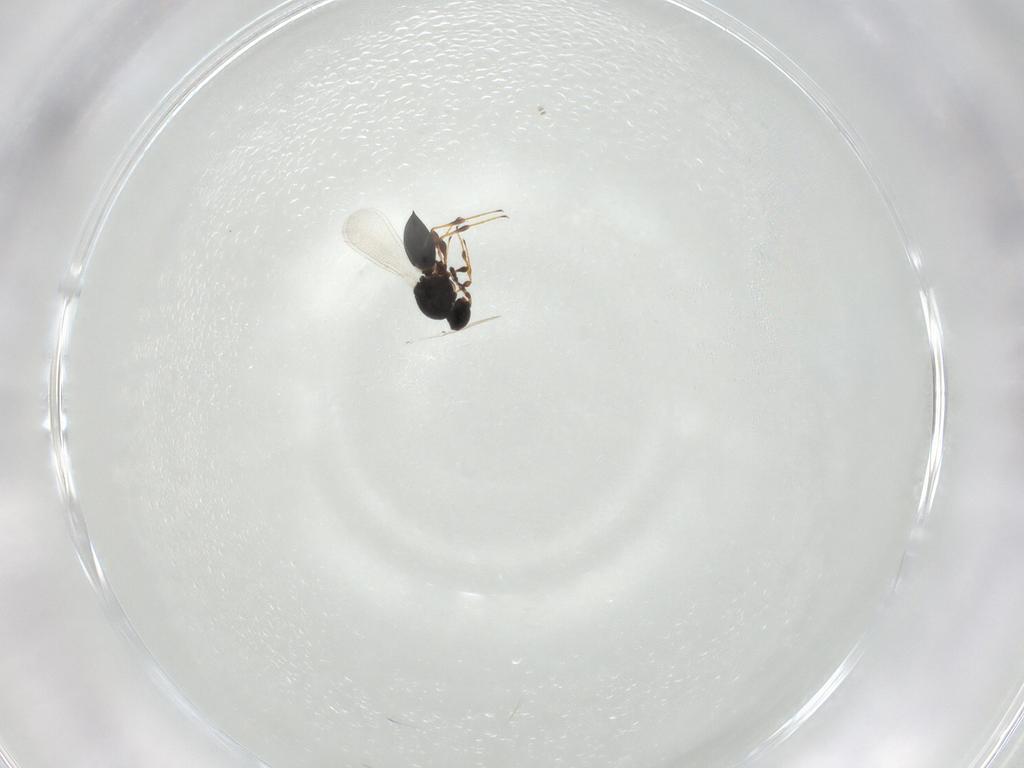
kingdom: Animalia
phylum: Arthropoda
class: Insecta
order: Hymenoptera
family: Platygastridae
